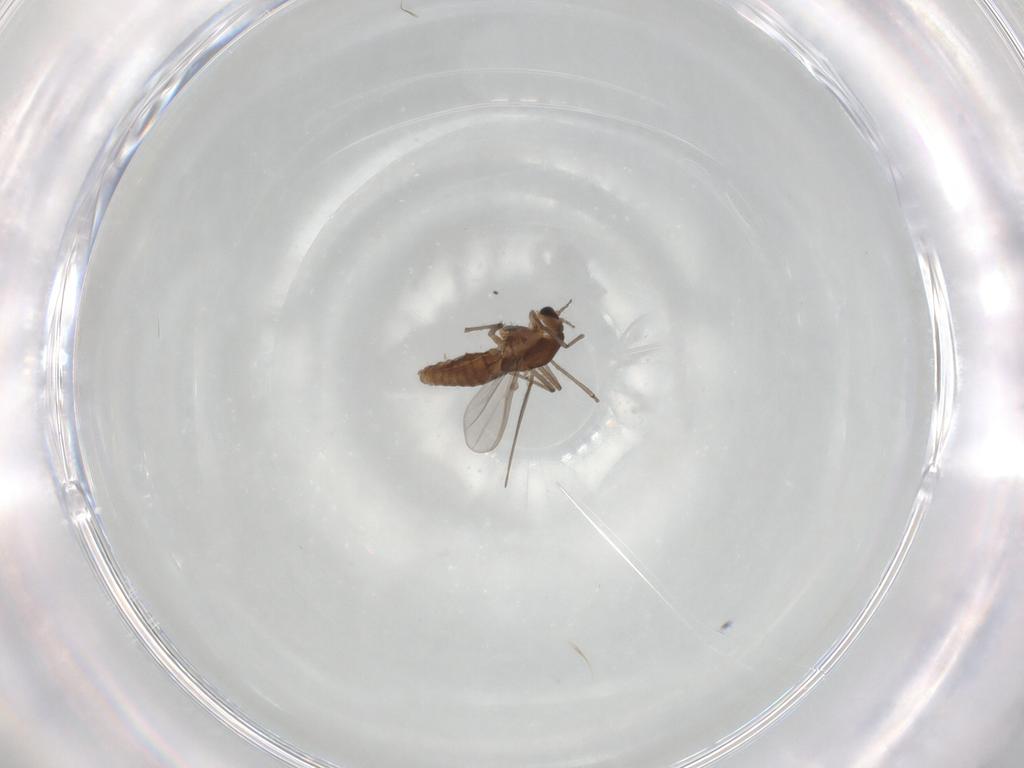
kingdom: Animalia
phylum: Arthropoda
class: Insecta
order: Diptera
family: Chironomidae
